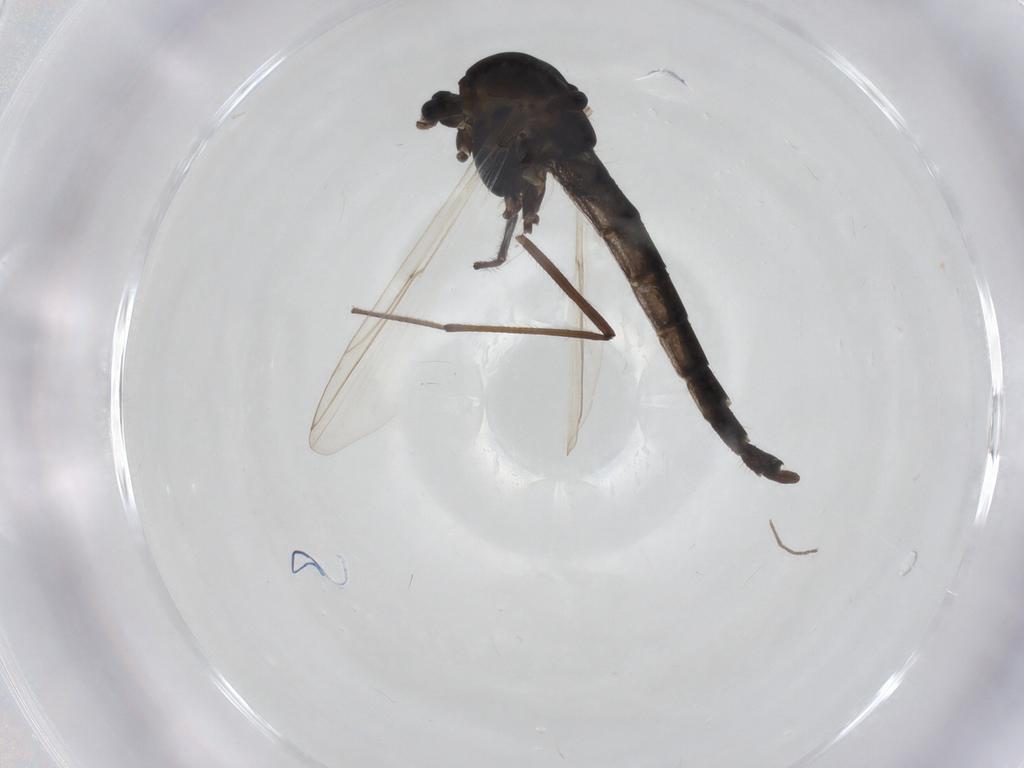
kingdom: Animalia
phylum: Arthropoda
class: Insecta
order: Diptera
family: Chironomidae
